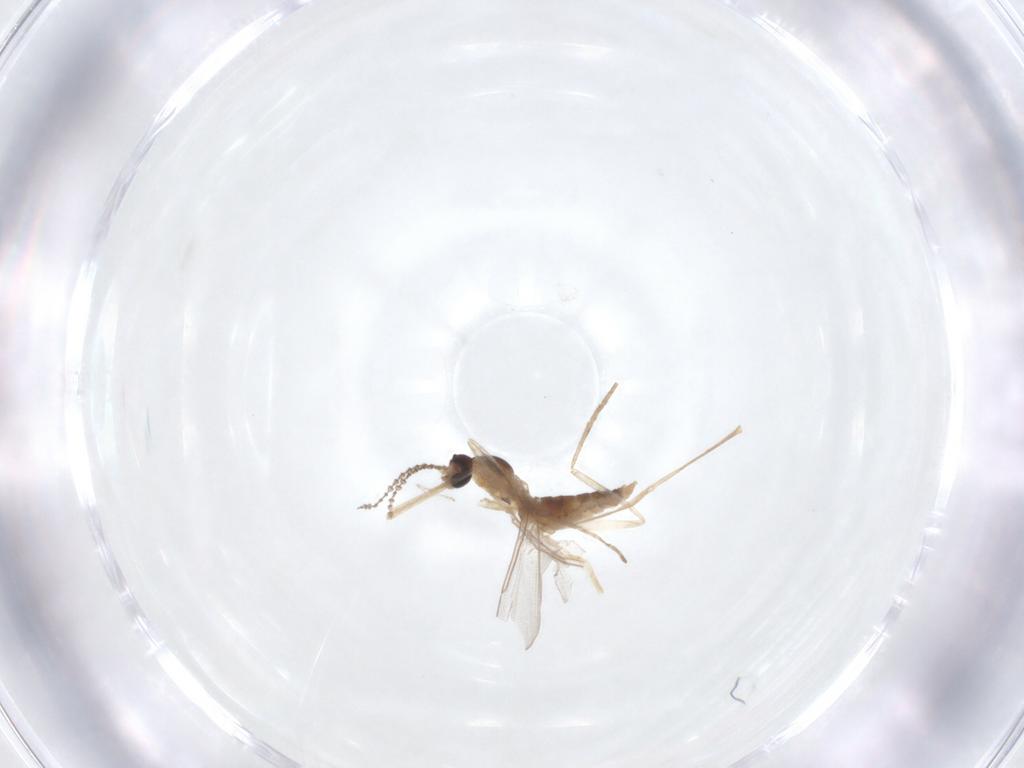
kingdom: Animalia
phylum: Arthropoda
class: Insecta
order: Diptera
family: Cecidomyiidae
